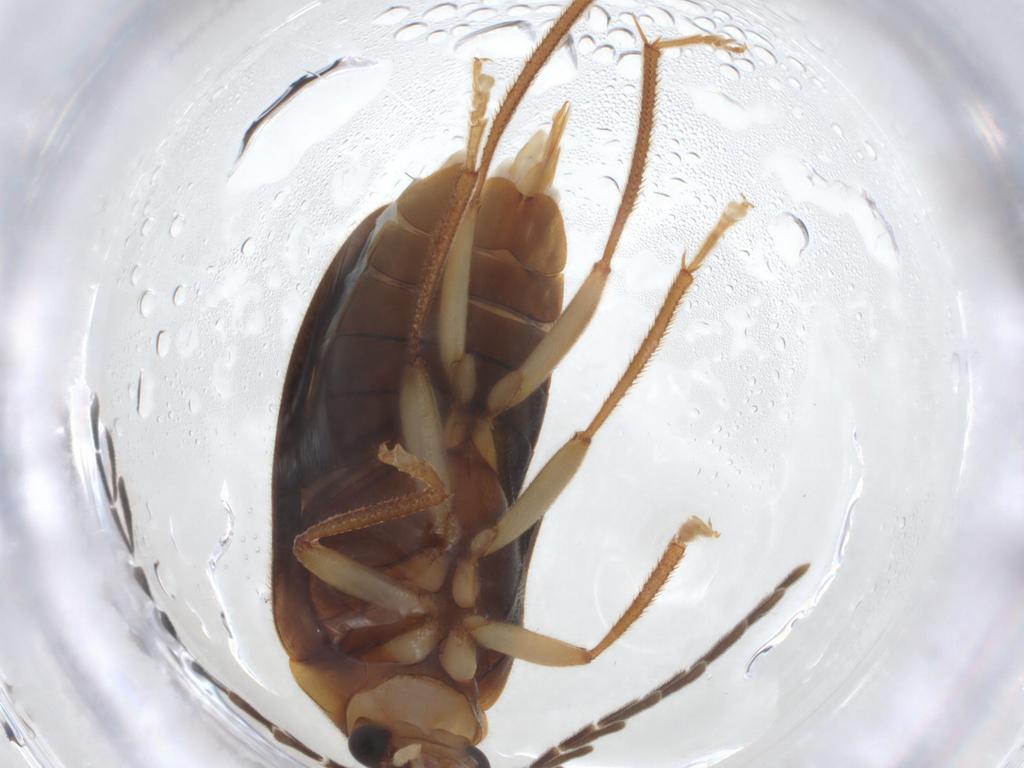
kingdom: Animalia
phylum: Arthropoda
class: Insecta
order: Coleoptera
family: Ptilodactylidae
